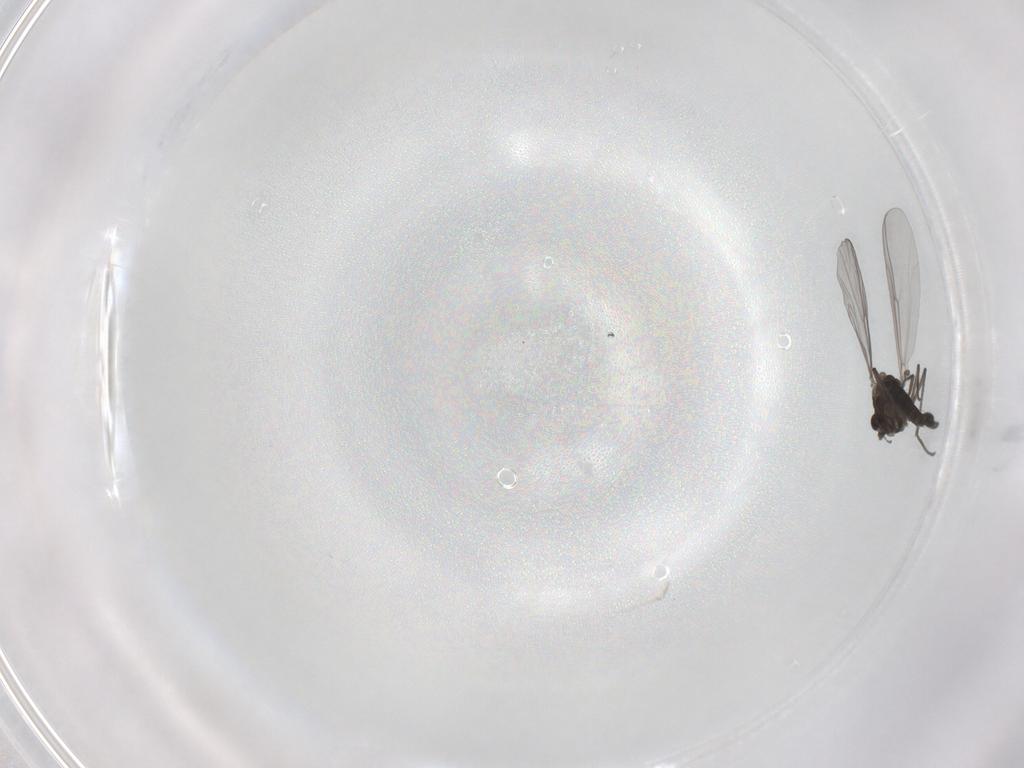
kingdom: Animalia
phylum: Arthropoda
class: Insecta
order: Diptera
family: Chironomidae
